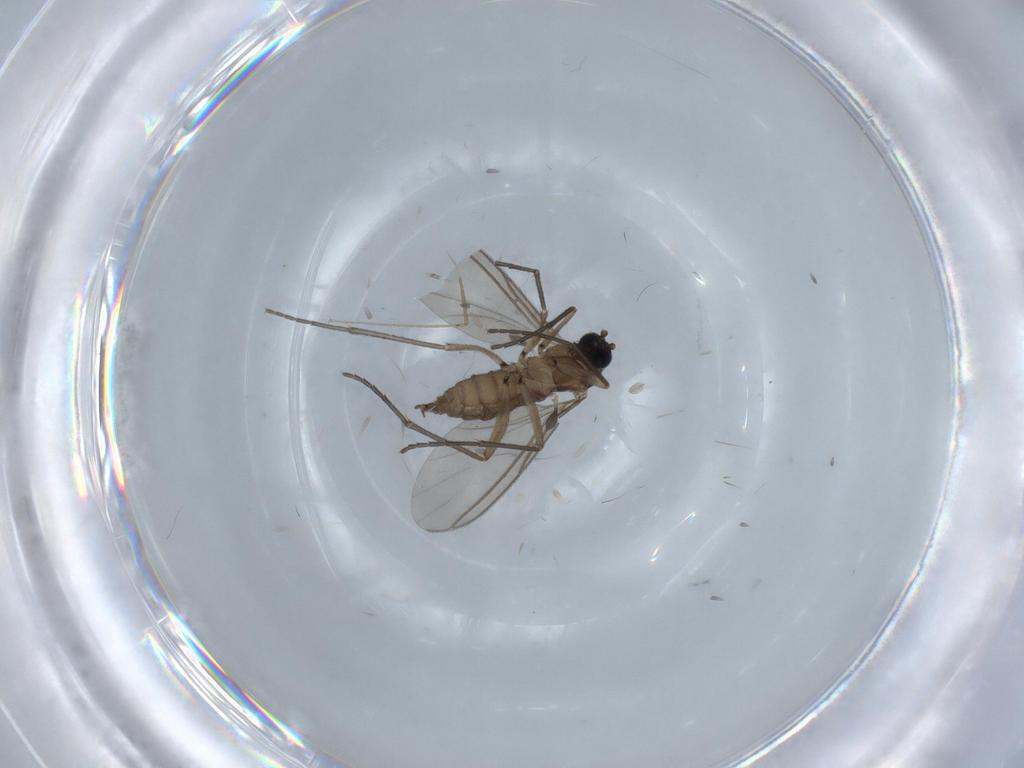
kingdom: Animalia
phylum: Arthropoda
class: Insecta
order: Diptera
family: Sciaridae
